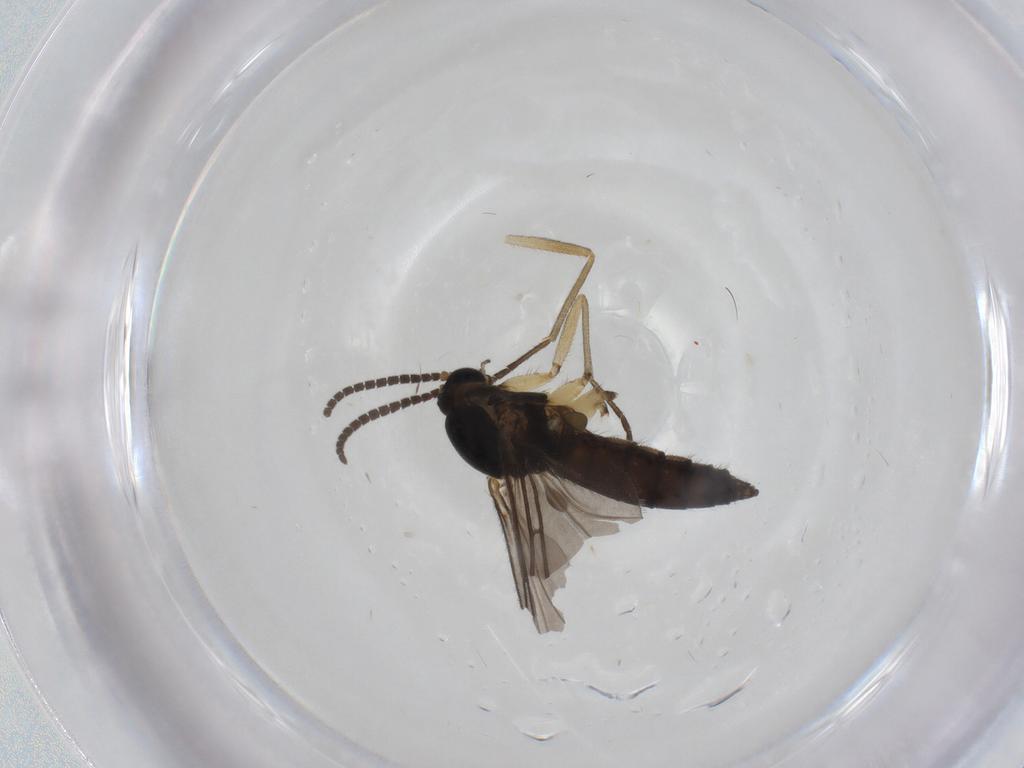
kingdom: Animalia
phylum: Arthropoda
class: Insecta
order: Diptera
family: Sciaridae
